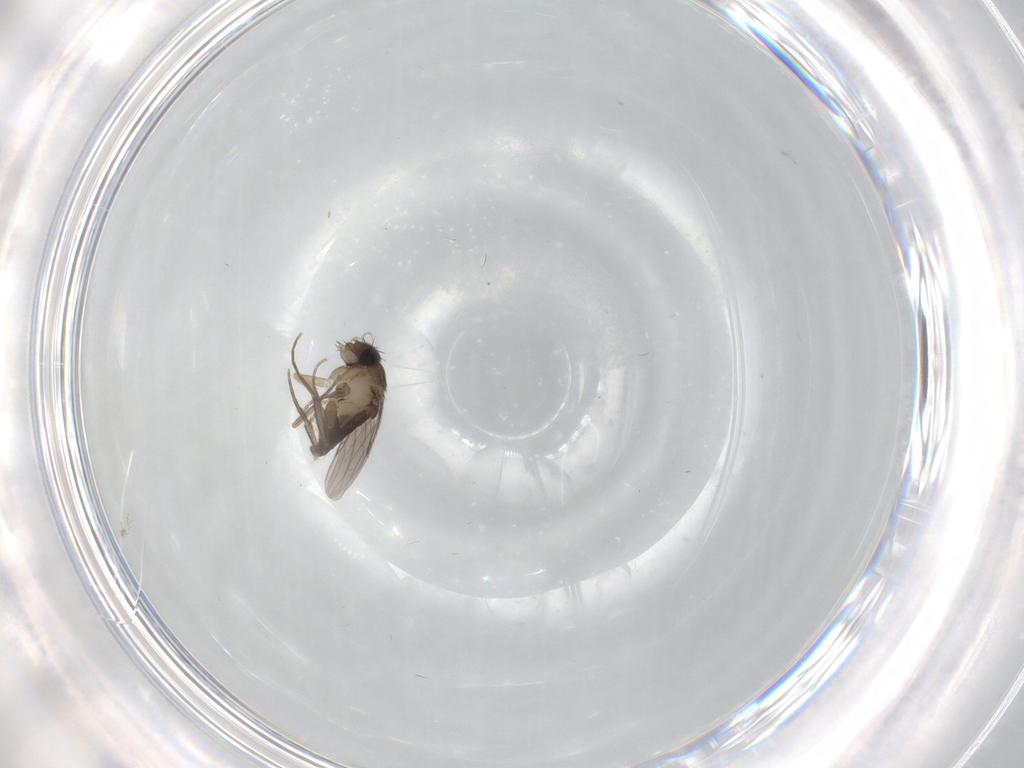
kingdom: Animalia
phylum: Arthropoda
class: Insecta
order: Diptera
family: Phoridae
